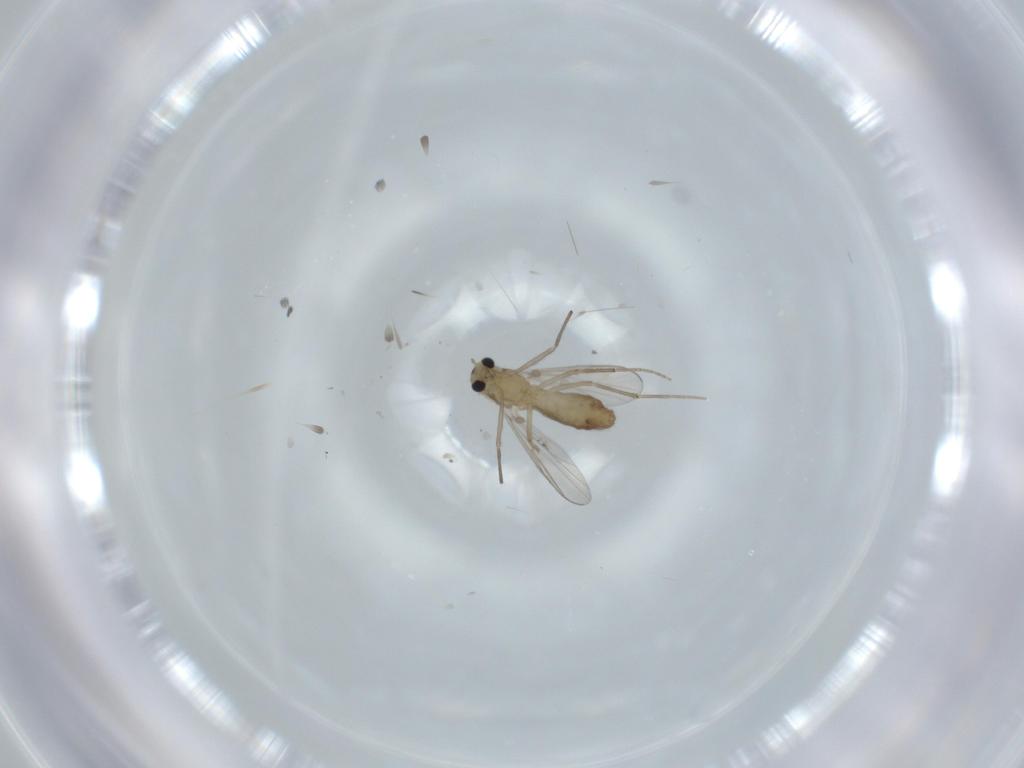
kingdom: Animalia
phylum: Arthropoda
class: Insecta
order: Diptera
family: Chironomidae
